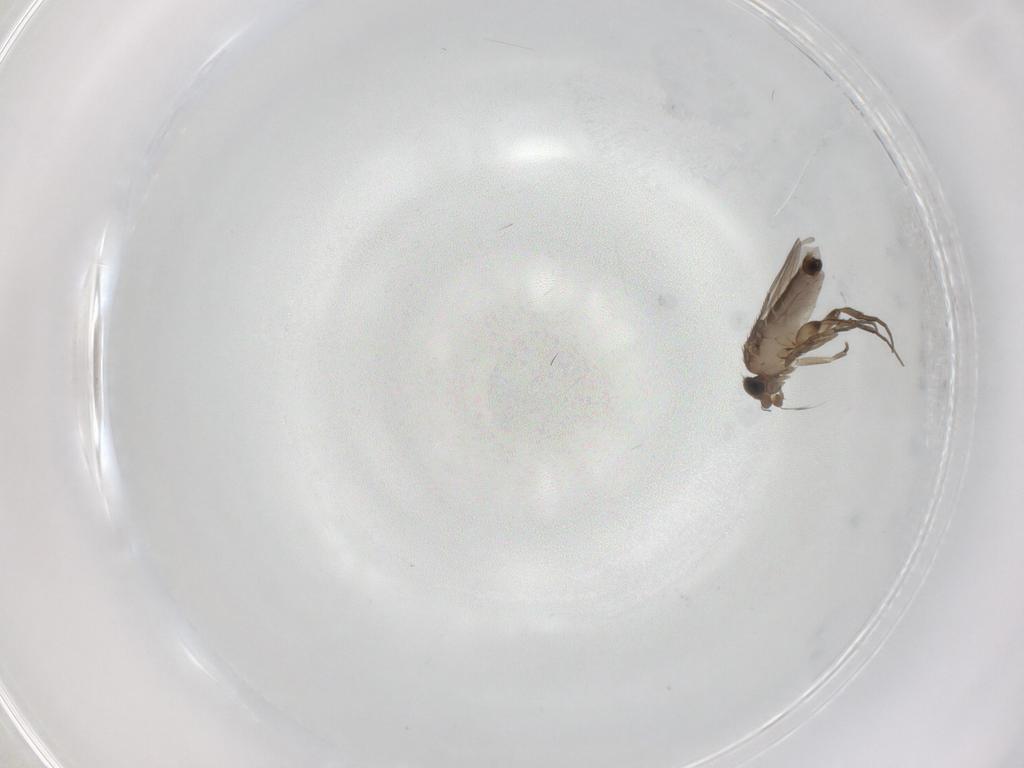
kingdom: Animalia
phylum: Arthropoda
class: Insecta
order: Diptera
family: Phoridae
